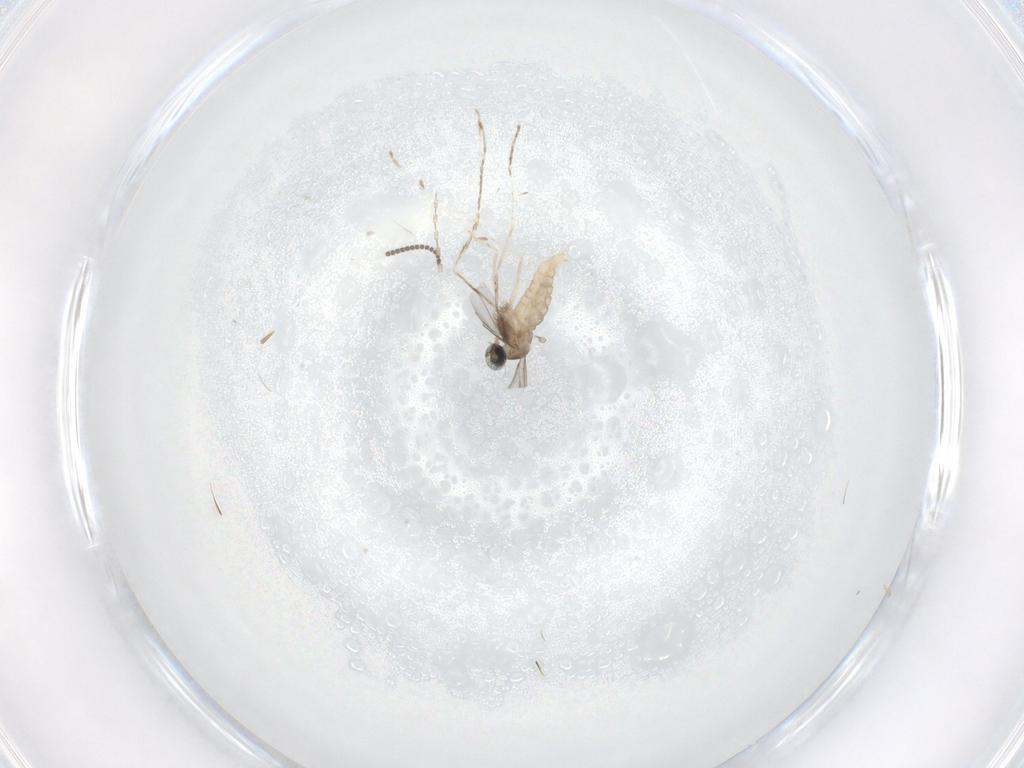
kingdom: Animalia
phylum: Arthropoda
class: Insecta
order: Diptera
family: Cecidomyiidae
